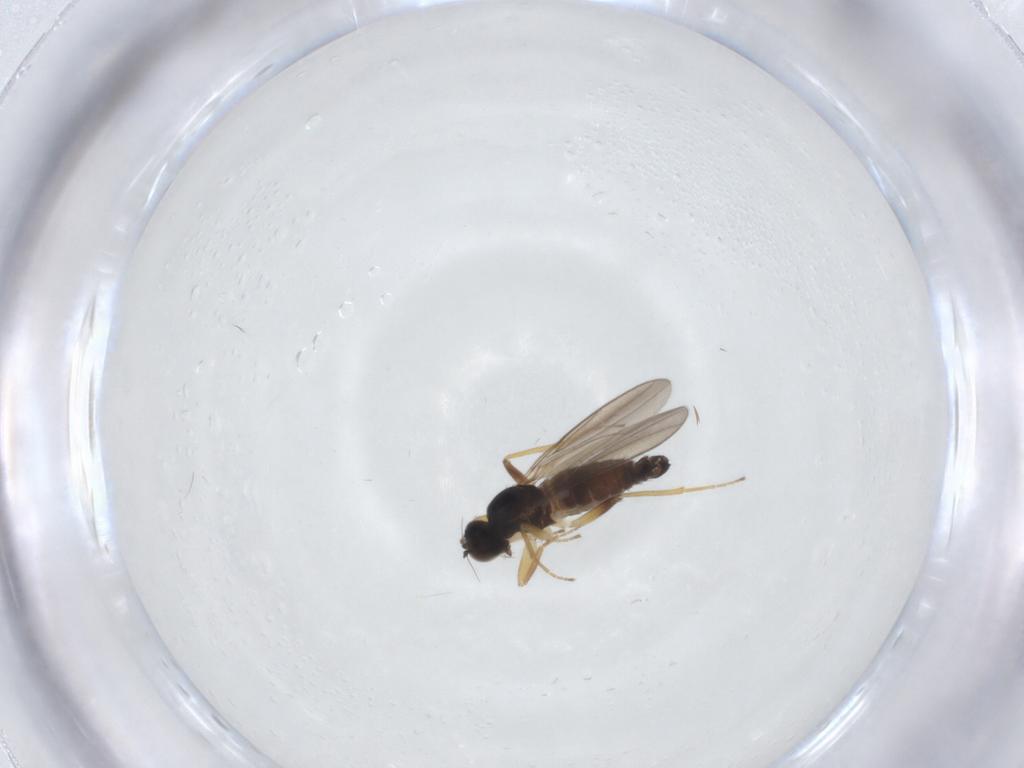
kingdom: Animalia
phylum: Arthropoda
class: Insecta
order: Diptera
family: Hybotidae
